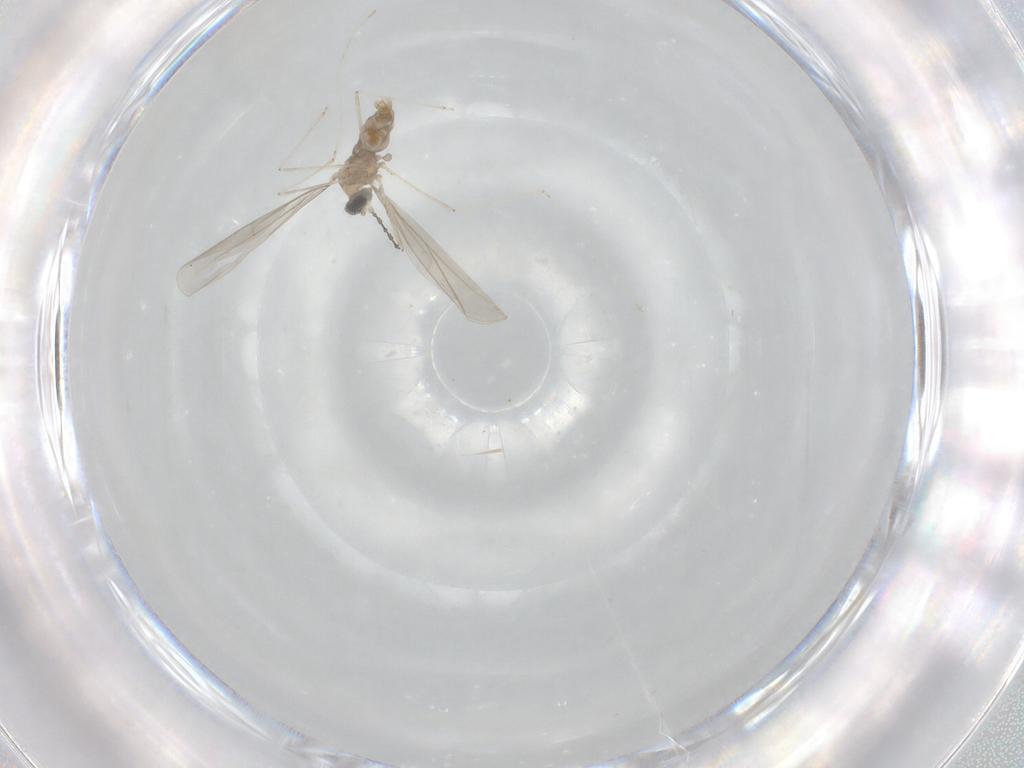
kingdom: Animalia
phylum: Arthropoda
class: Insecta
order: Diptera
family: Cecidomyiidae
